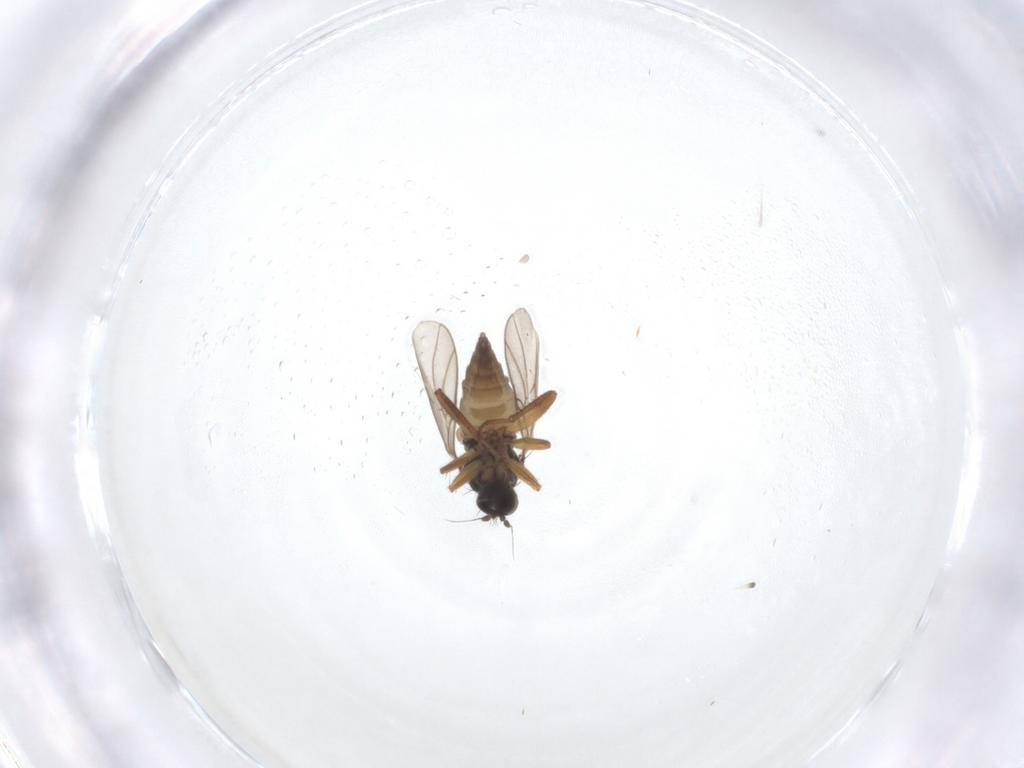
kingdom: Animalia
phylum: Arthropoda
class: Insecta
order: Diptera
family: Hybotidae
